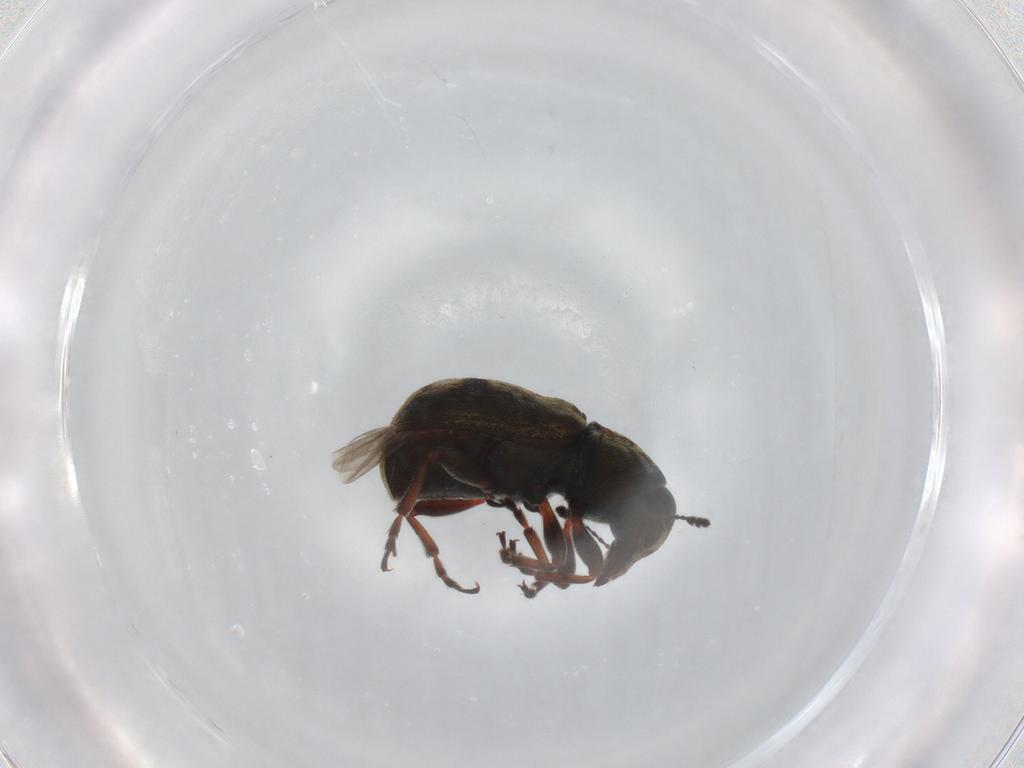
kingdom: Animalia
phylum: Arthropoda
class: Insecta
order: Coleoptera
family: Anthribidae
